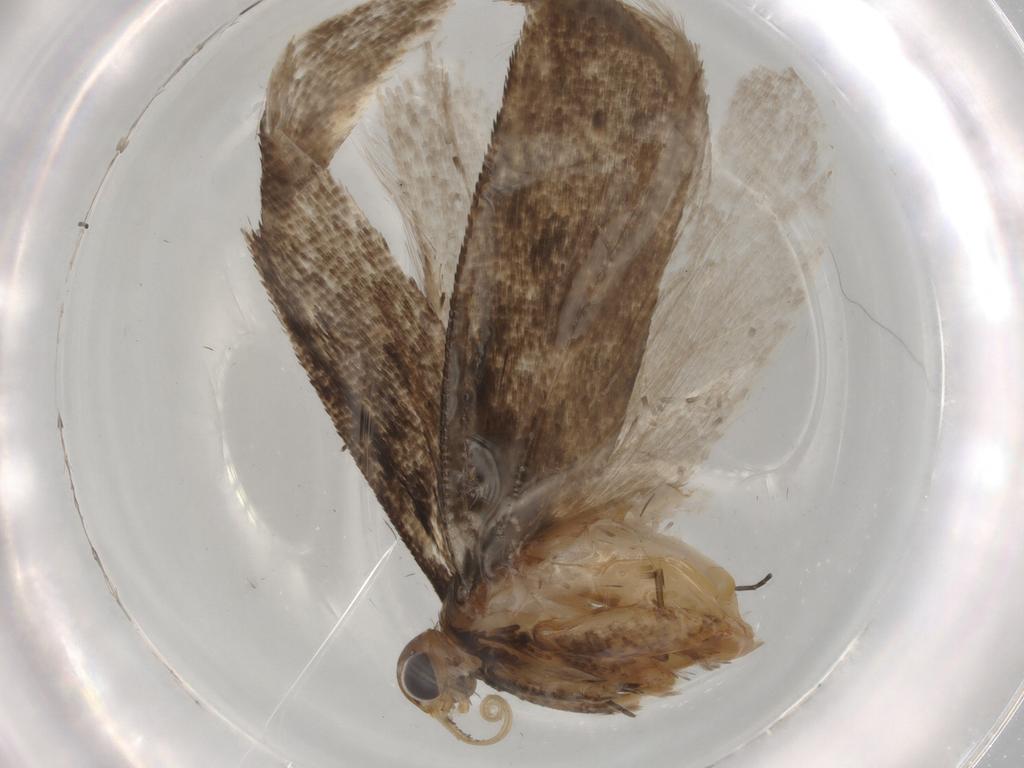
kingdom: Animalia
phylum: Arthropoda
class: Insecta
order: Lepidoptera
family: Gelechiidae
